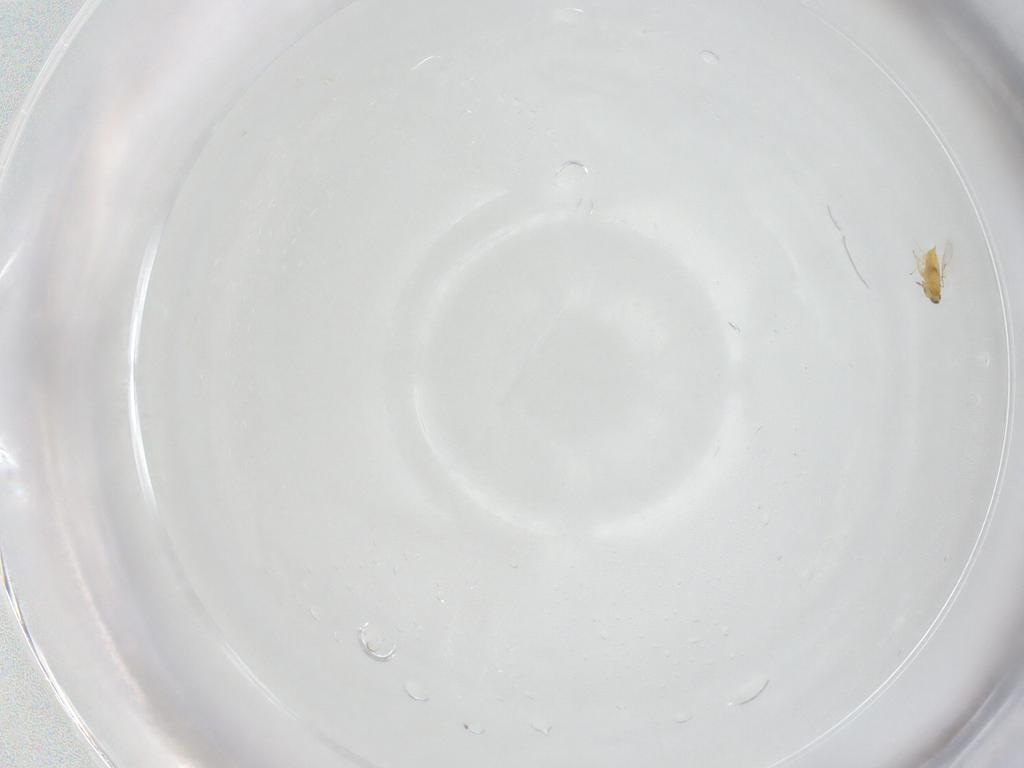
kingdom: Animalia
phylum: Arthropoda
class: Insecta
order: Hymenoptera
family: Aphelinidae
